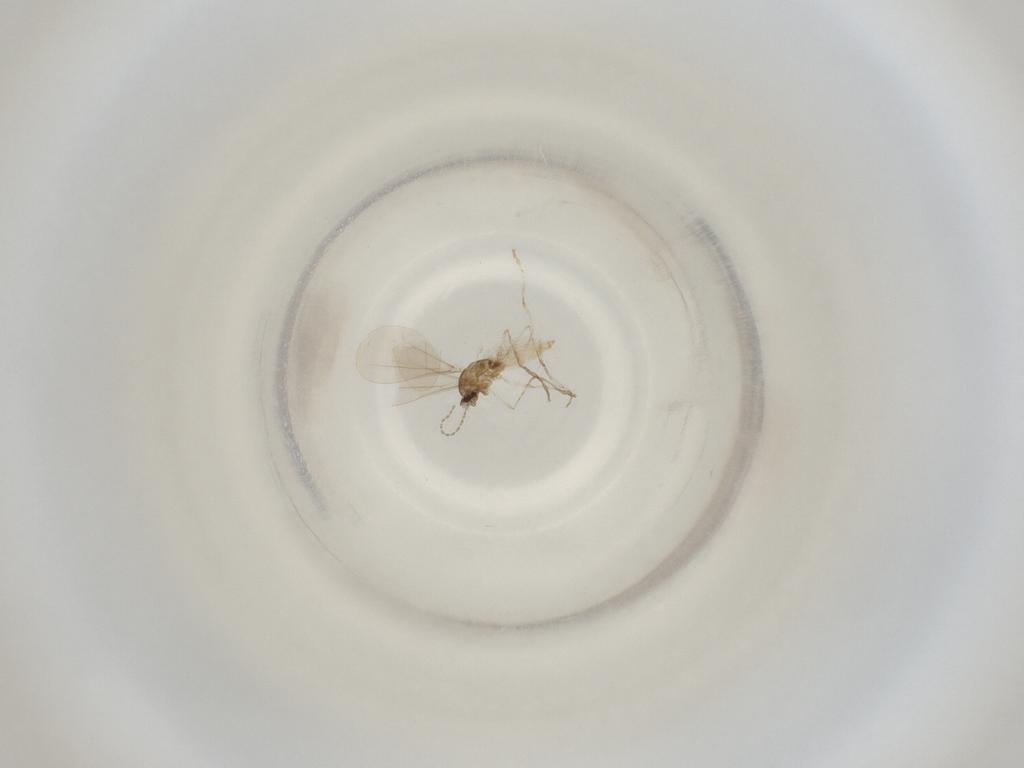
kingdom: Animalia
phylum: Arthropoda
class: Insecta
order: Diptera
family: Cecidomyiidae
